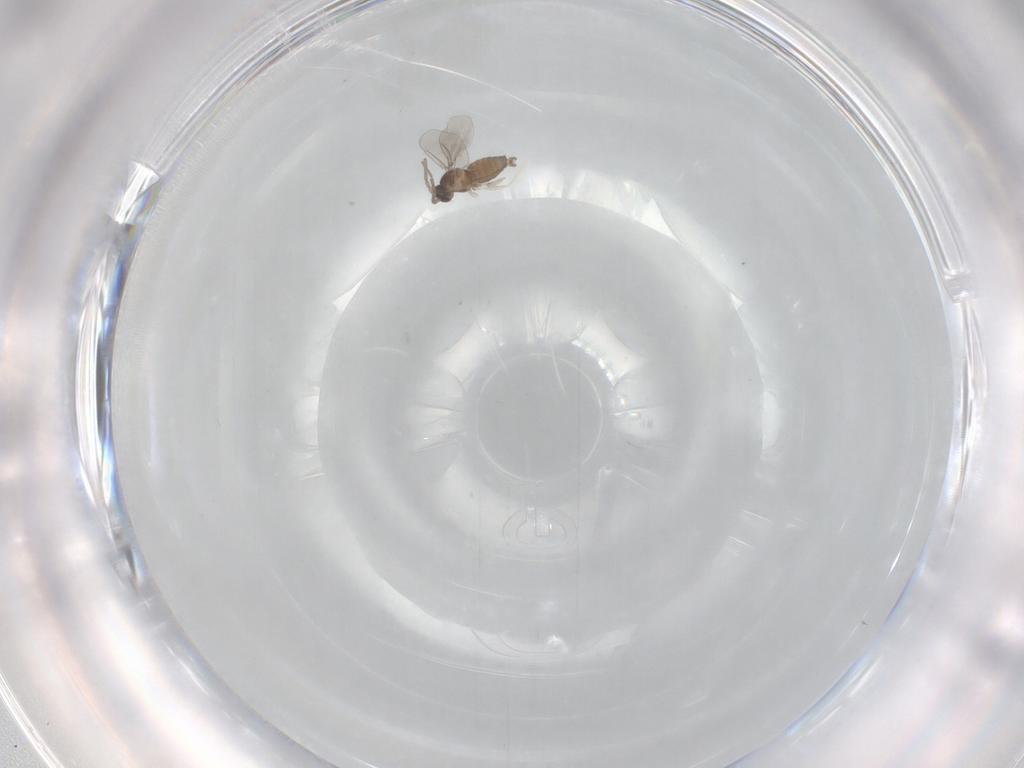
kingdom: Animalia
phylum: Arthropoda
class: Insecta
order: Diptera
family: Cecidomyiidae
